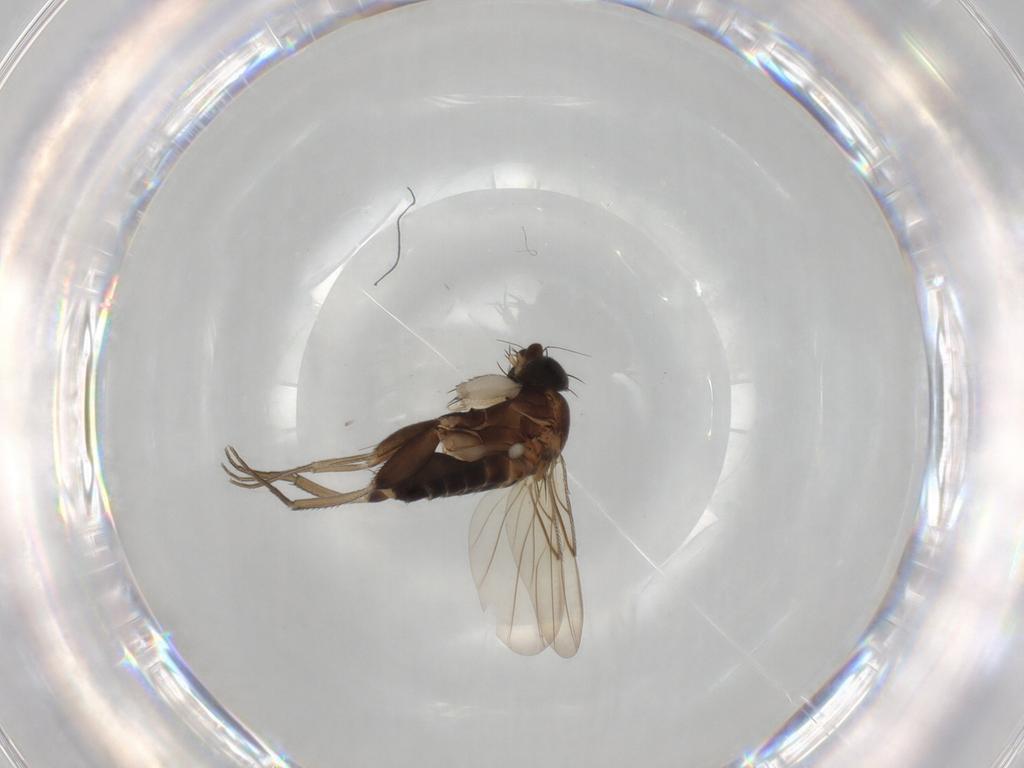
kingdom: Animalia
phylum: Arthropoda
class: Insecta
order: Diptera
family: Phoridae
